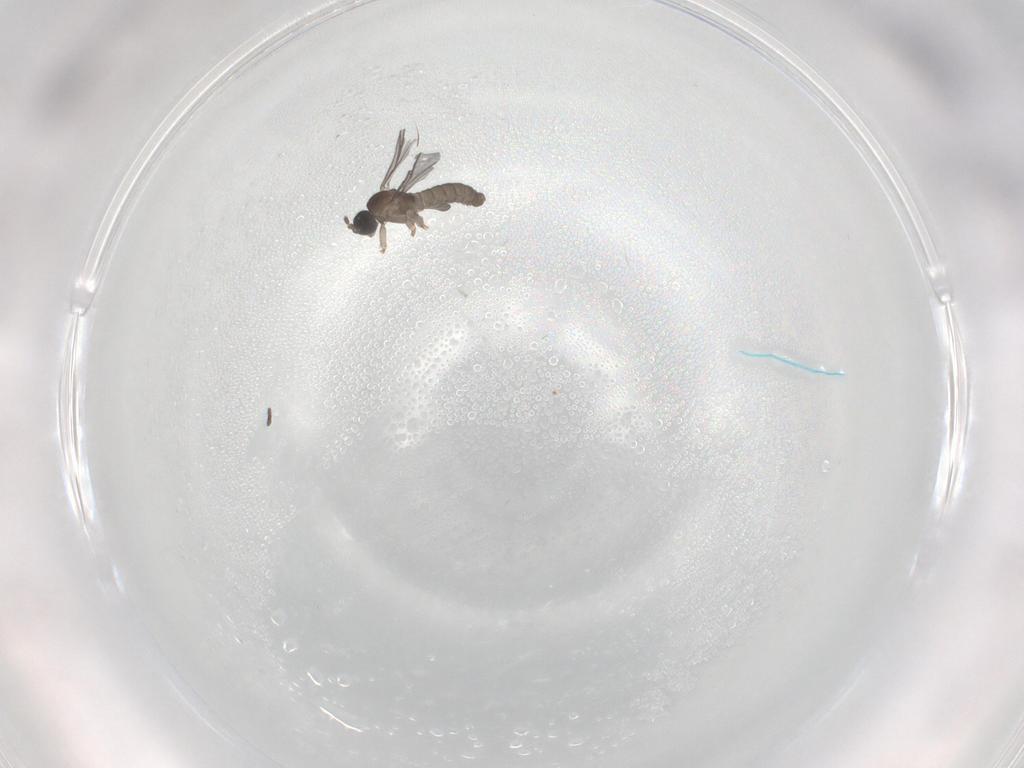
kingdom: Animalia
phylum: Arthropoda
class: Insecta
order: Diptera
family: Sciaridae
